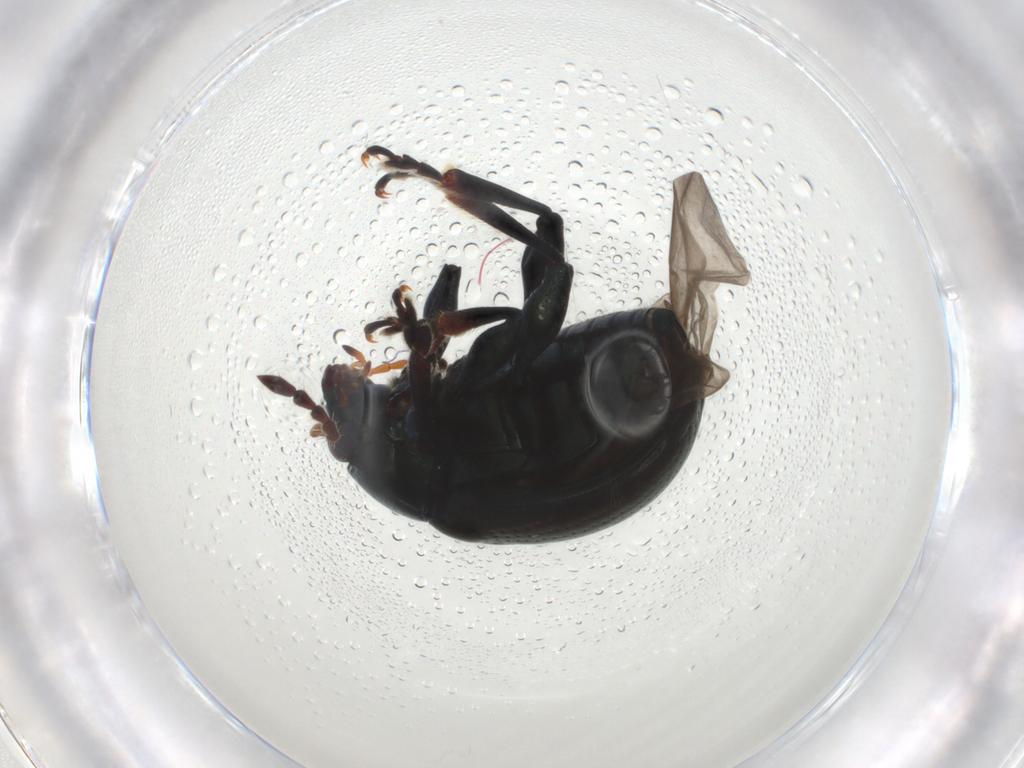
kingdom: Animalia
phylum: Arthropoda
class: Insecta
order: Coleoptera
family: Chrysomelidae
